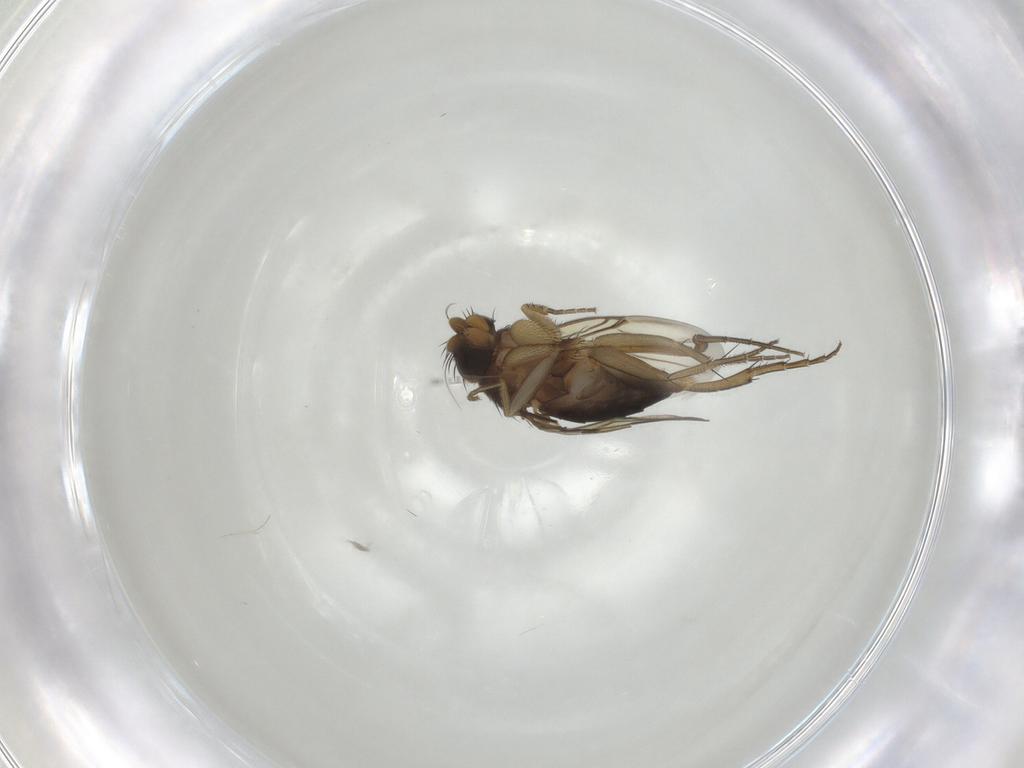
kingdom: Animalia
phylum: Arthropoda
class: Insecta
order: Diptera
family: Phoridae
